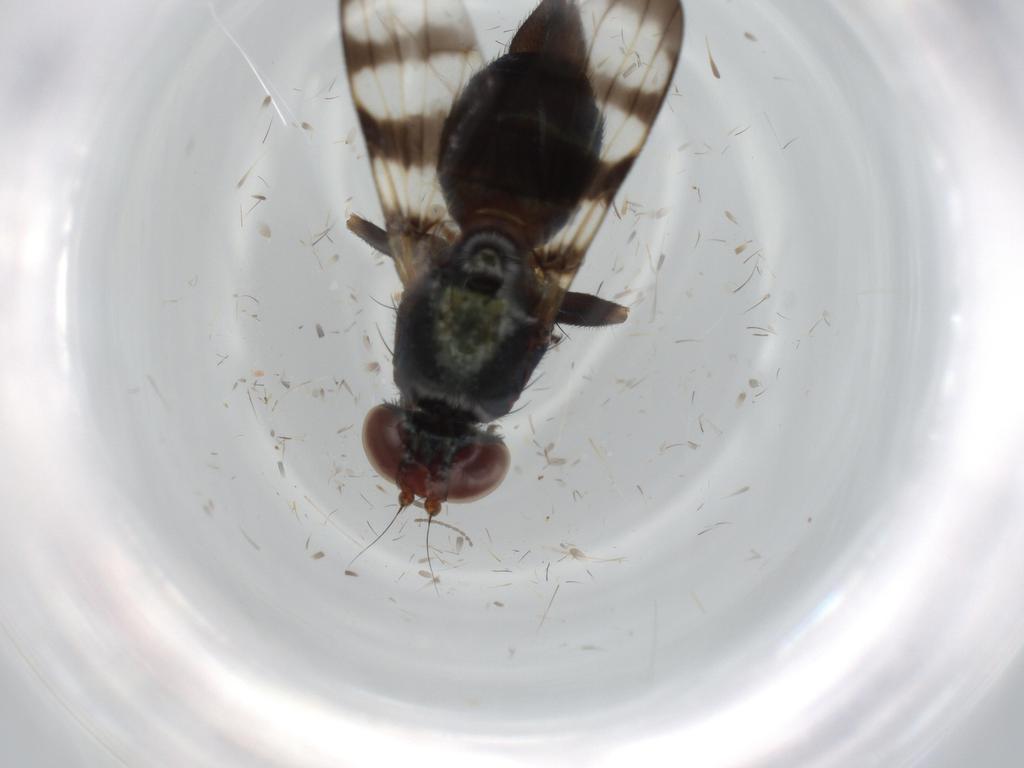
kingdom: Animalia
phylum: Arthropoda
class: Insecta
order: Diptera
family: Ulidiidae
